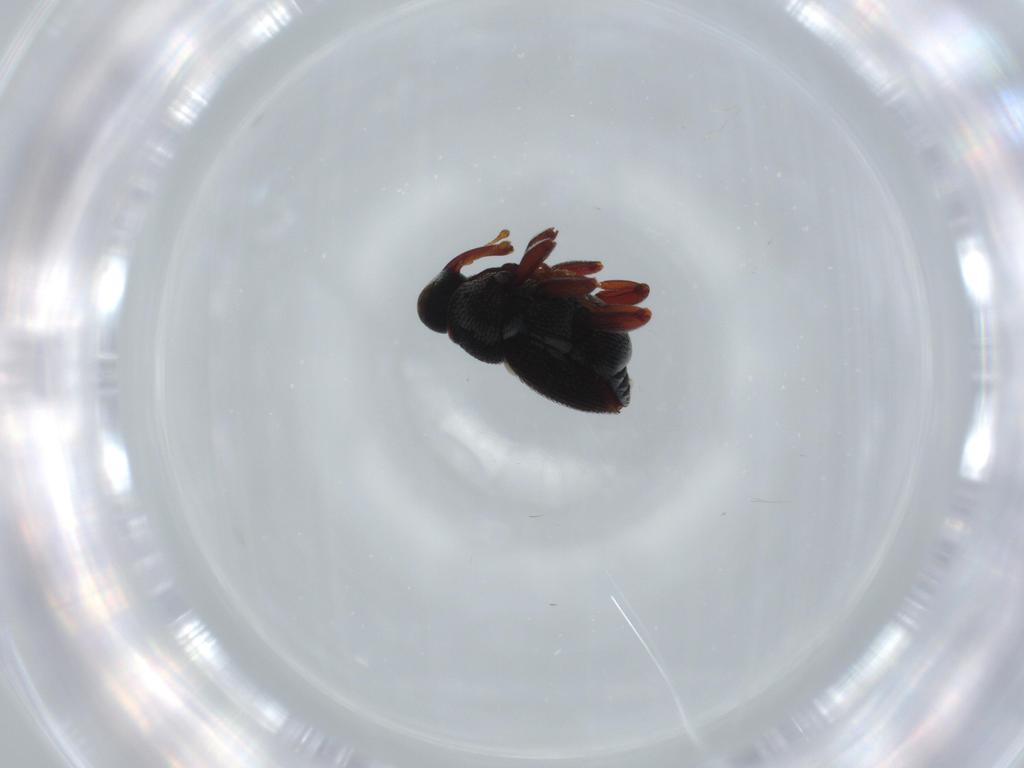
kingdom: Animalia
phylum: Arthropoda
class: Insecta
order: Coleoptera
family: Curculionidae
